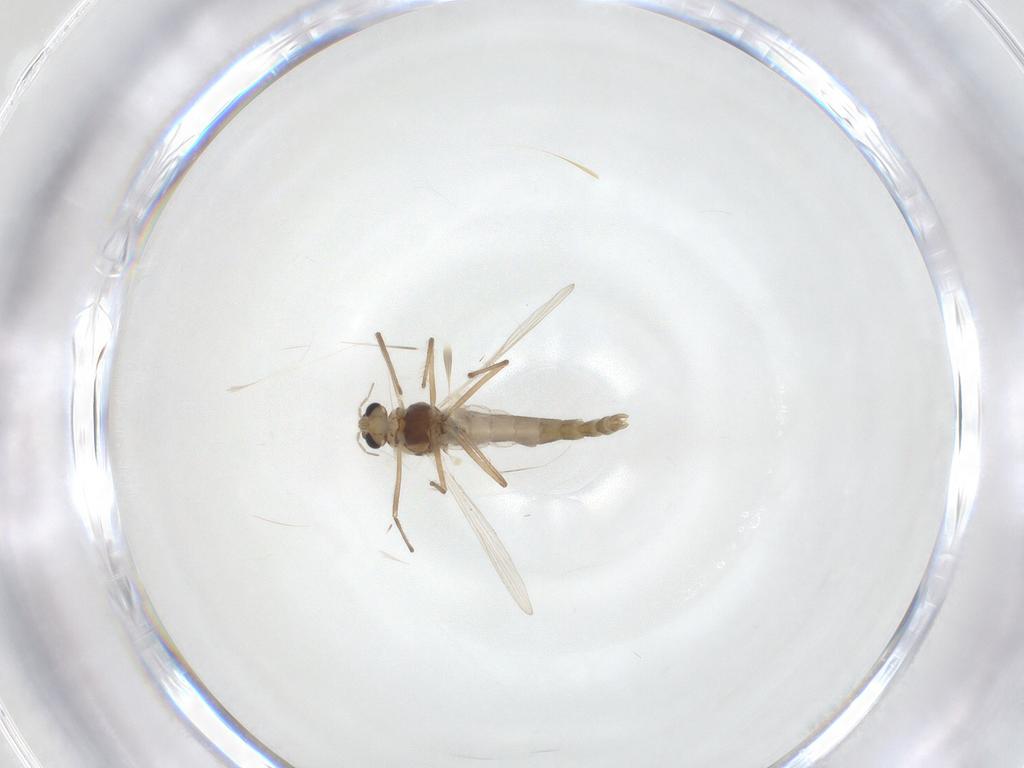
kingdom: Animalia
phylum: Arthropoda
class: Insecta
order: Diptera
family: Chironomidae
